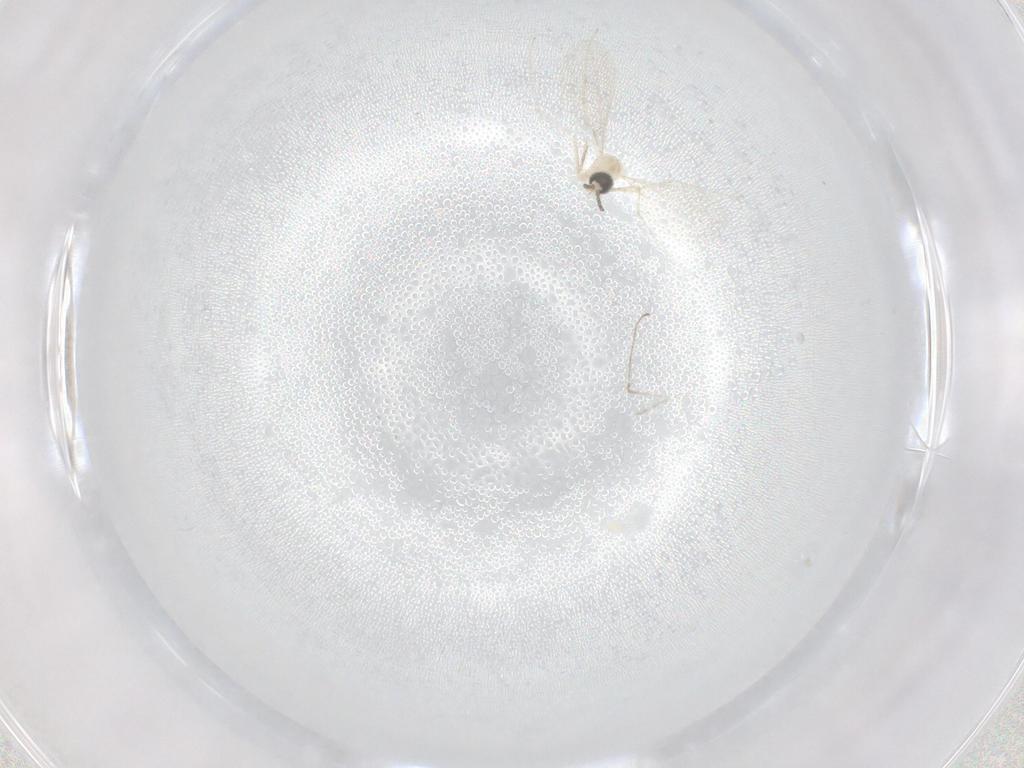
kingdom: Animalia
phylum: Arthropoda
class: Insecta
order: Diptera
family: Cecidomyiidae
